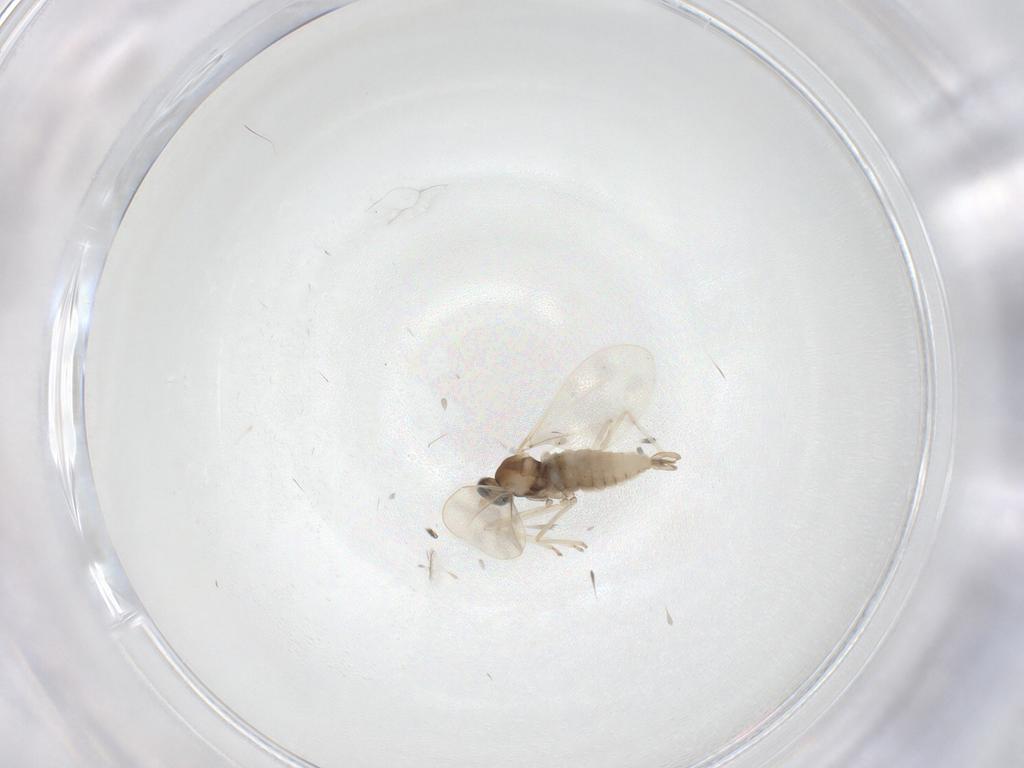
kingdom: Animalia
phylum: Arthropoda
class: Insecta
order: Diptera
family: Cecidomyiidae
